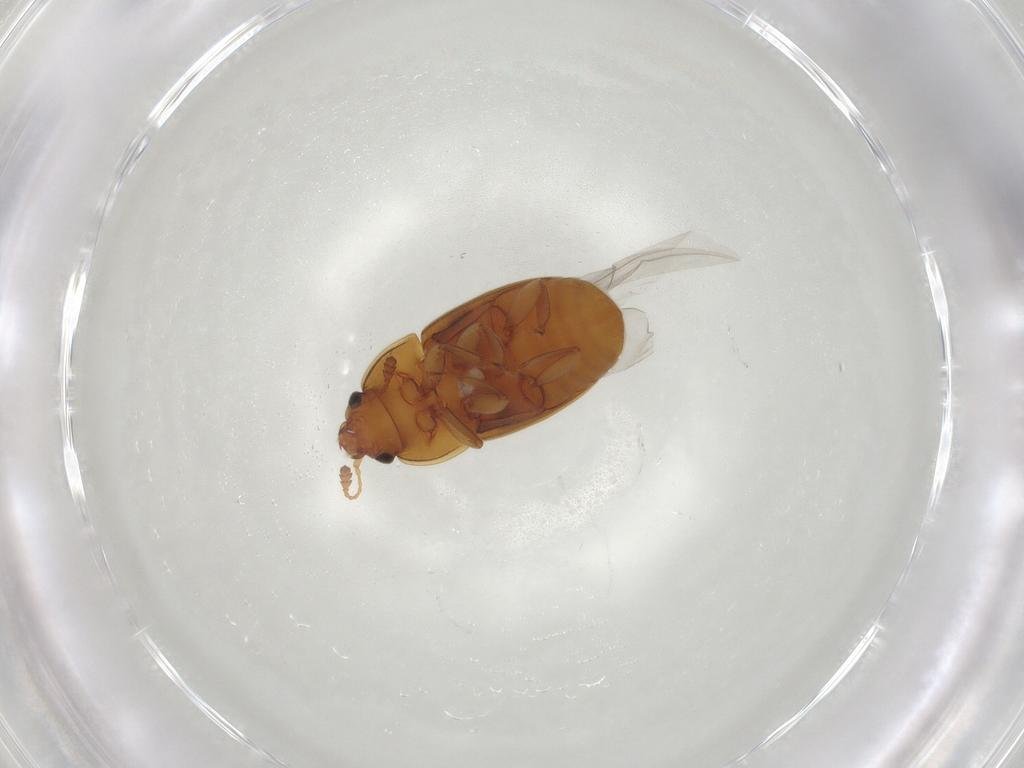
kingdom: Animalia
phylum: Arthropoda
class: Insecta
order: Coleoptera
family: Nitidulidae
